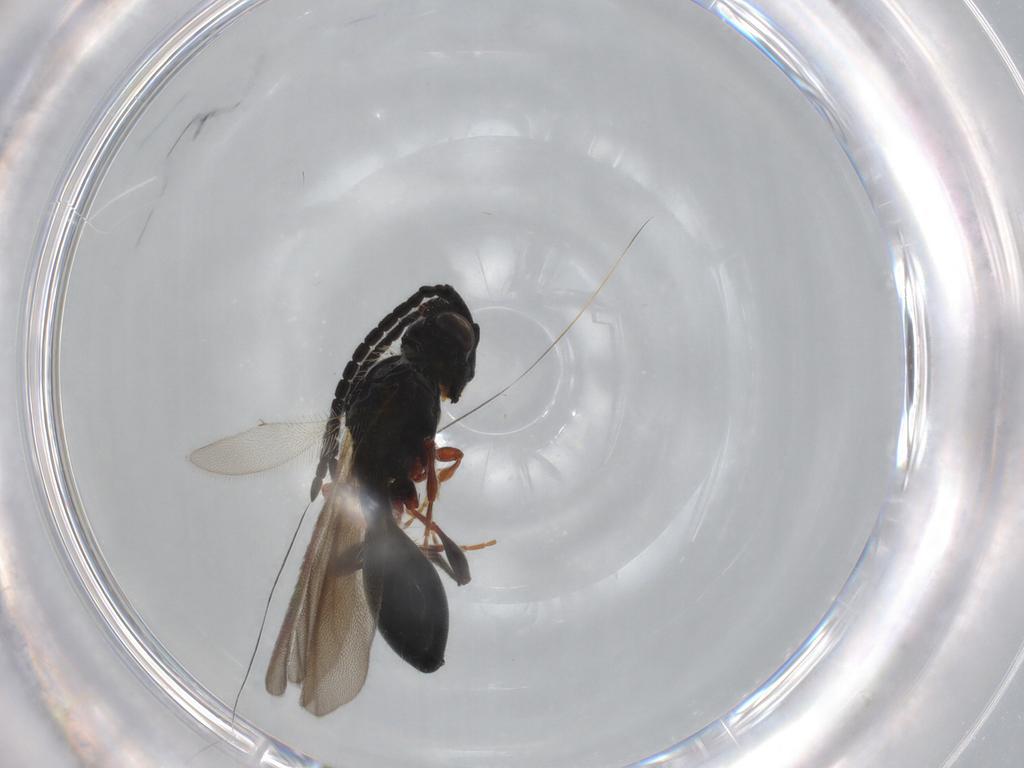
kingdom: Animalia
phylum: Arthropoda
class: Insecta
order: Hymenoptera
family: Diapriidae
